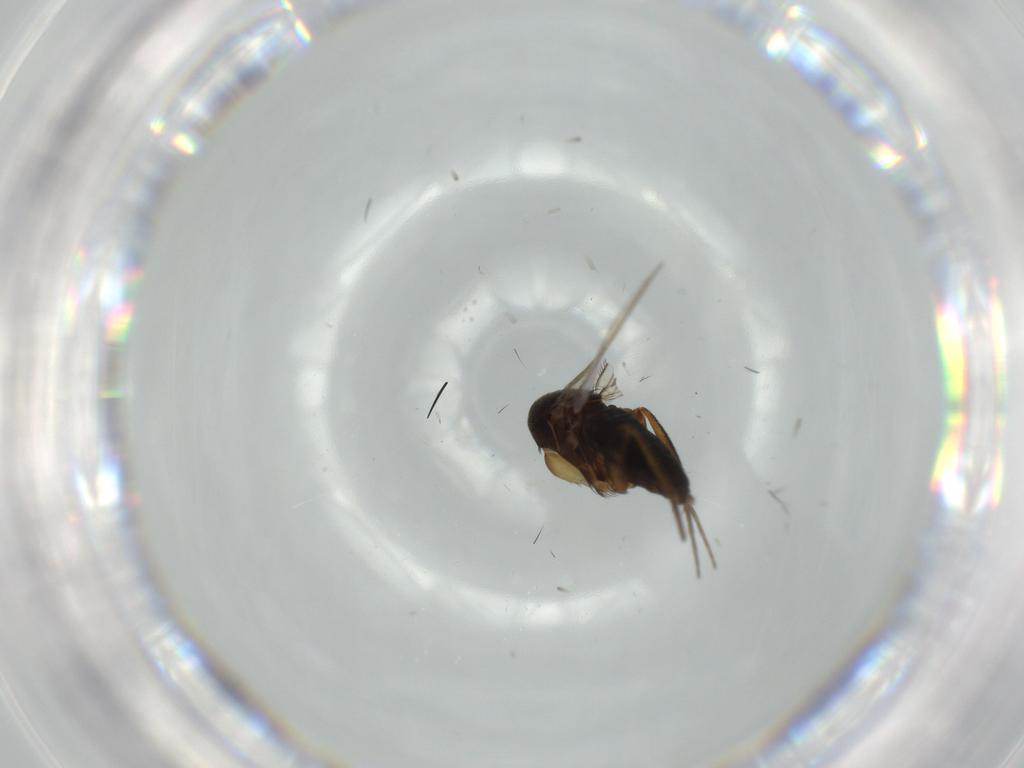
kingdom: Animalia
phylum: Arthropoda
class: Insecta
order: Diptera
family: Phoridae
